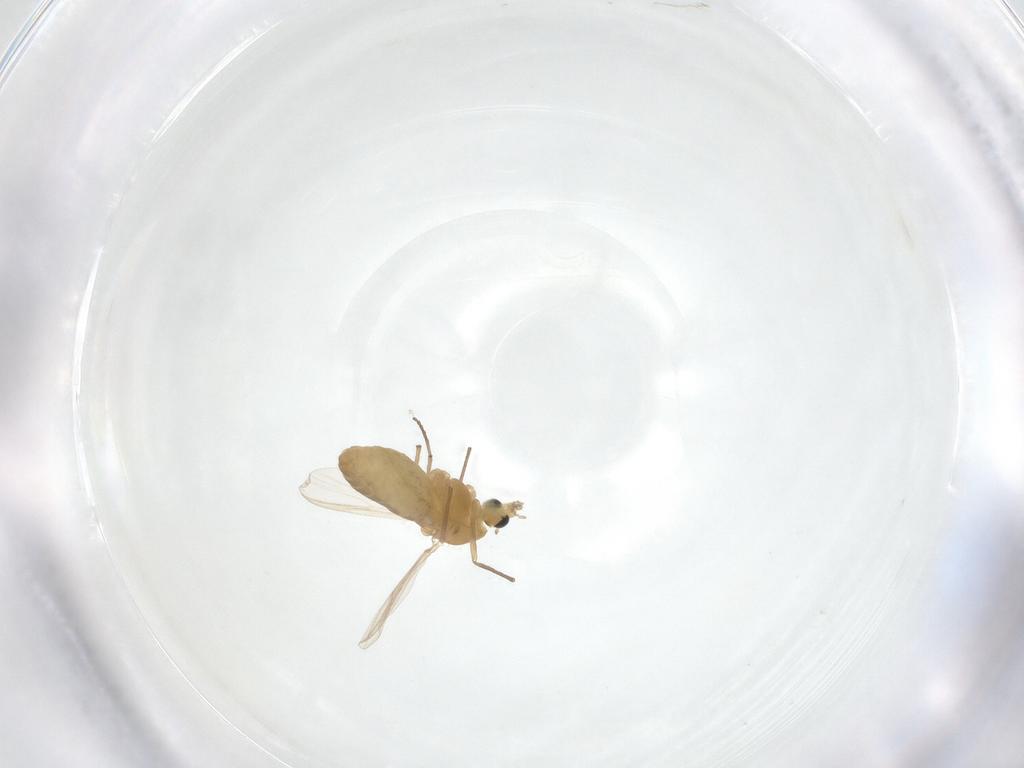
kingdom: Animalia
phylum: Arthropoda
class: Insecta
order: Diptera
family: Chironomidae
